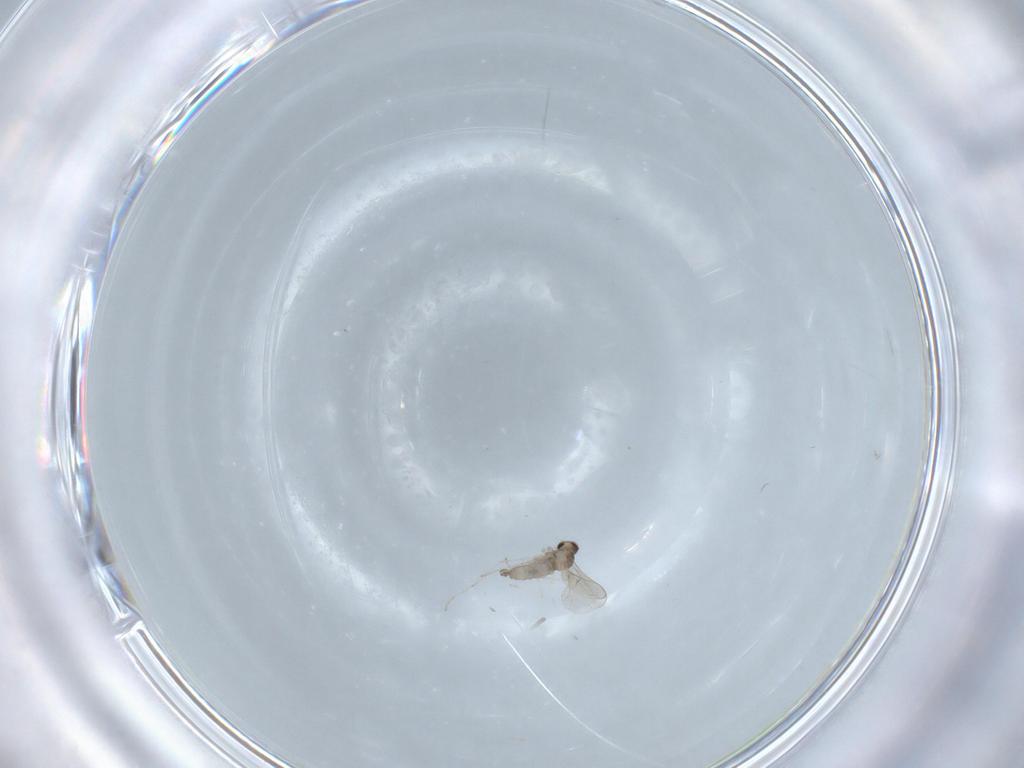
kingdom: Animalia
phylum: Arthropoda
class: Insecta
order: Diptera
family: Cecidomyiidae
